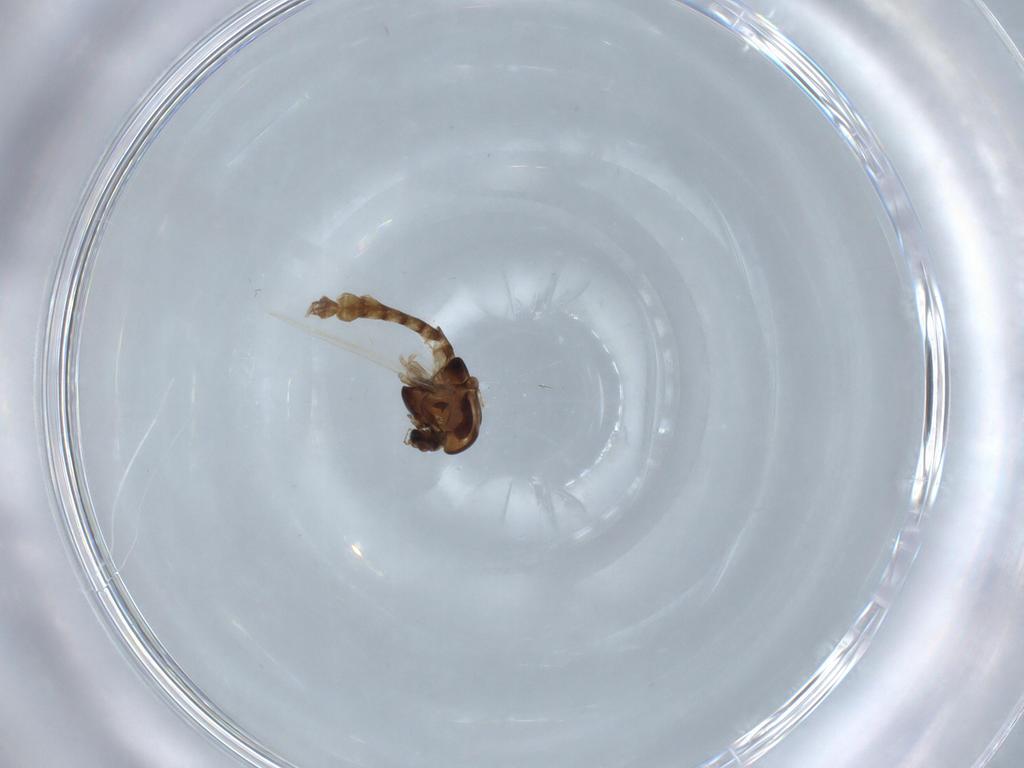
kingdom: Animalia
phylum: Arthropoda
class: Insecta
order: Diptera
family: Chironomidae
